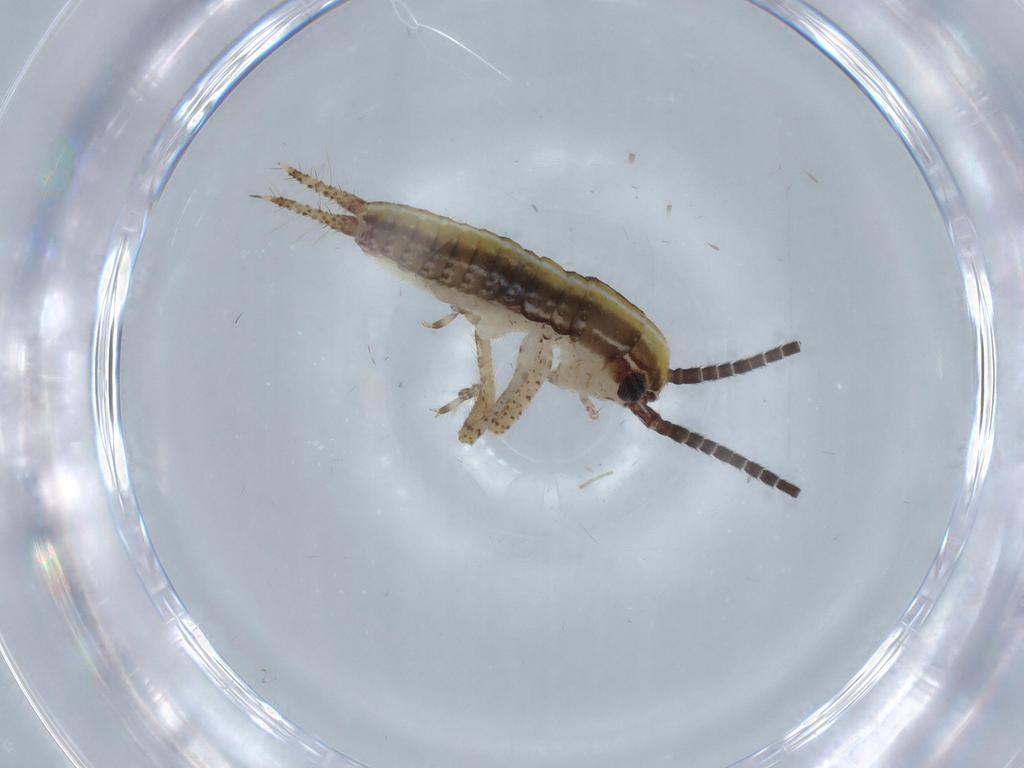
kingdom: Animalia
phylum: Arthropoda
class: Insecta
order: Orthoptera
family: Gryllidae
